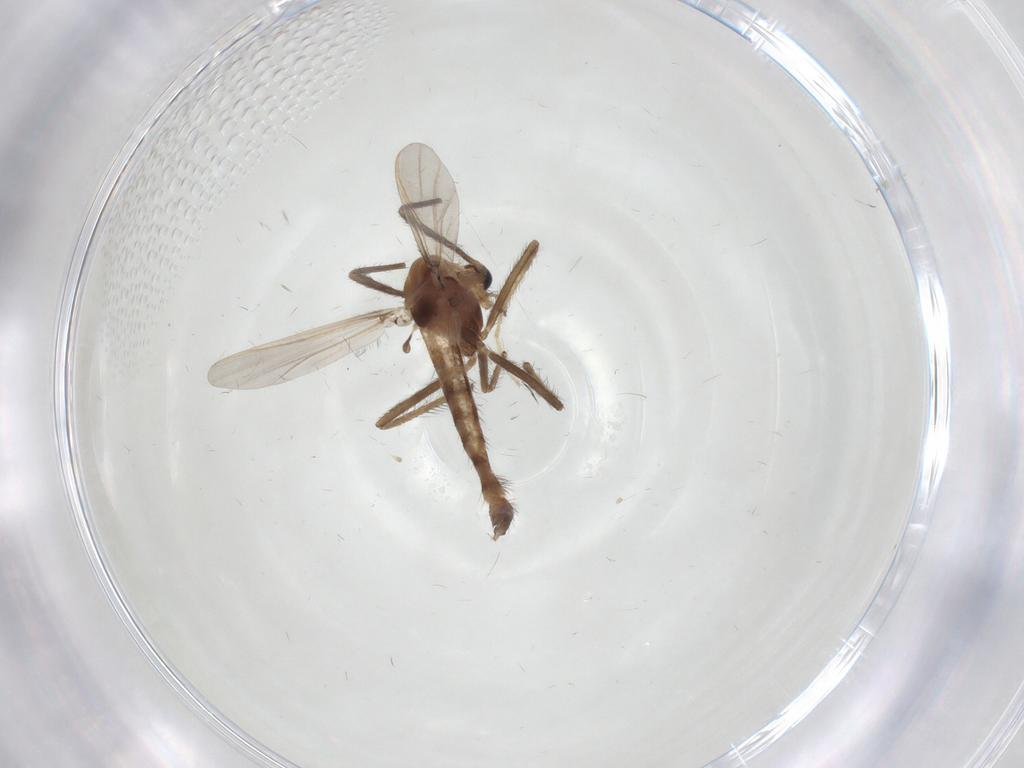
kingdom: Animalia
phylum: Arthropoda
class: Insecta
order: Diptera
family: Chironomidae
